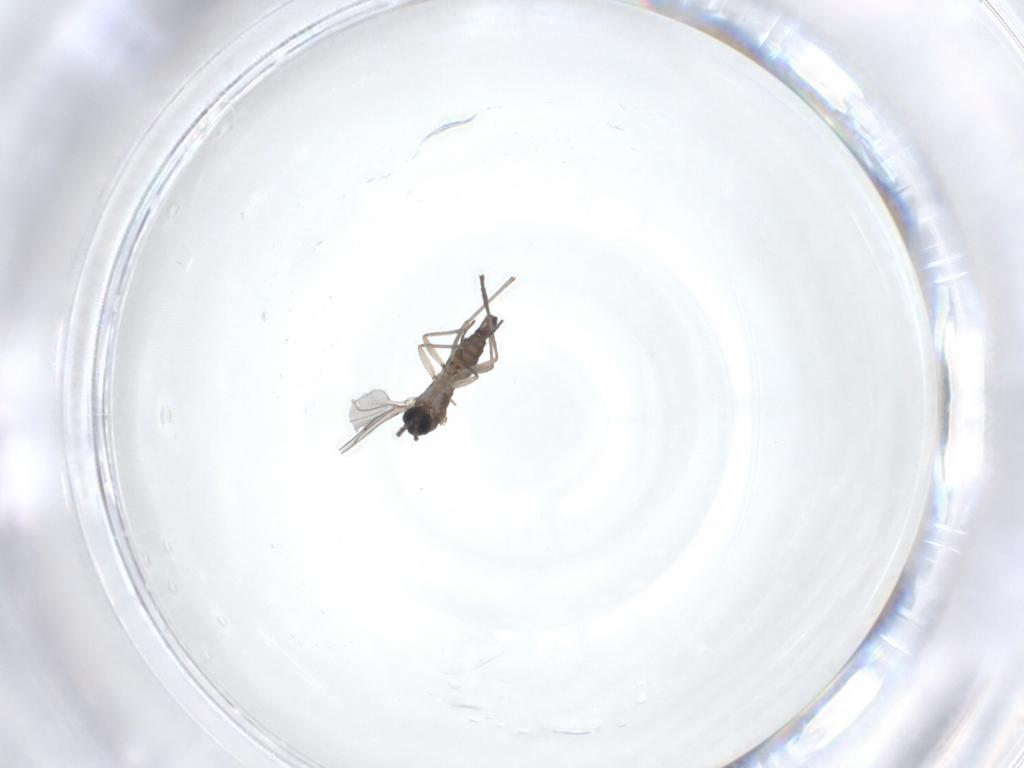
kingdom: Animalia
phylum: Arthropoda
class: Insecta
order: Diptera
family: Sciaridae
